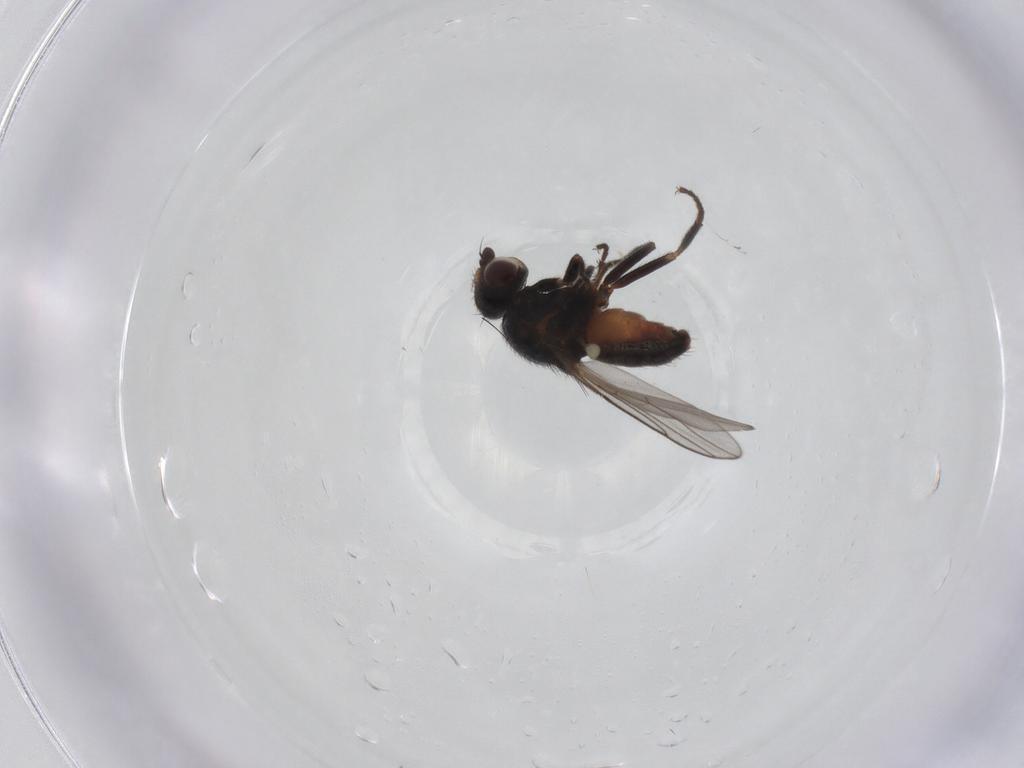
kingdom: Animalia
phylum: Arthropoda
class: Insecta
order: Diptera
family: Chloropidae
